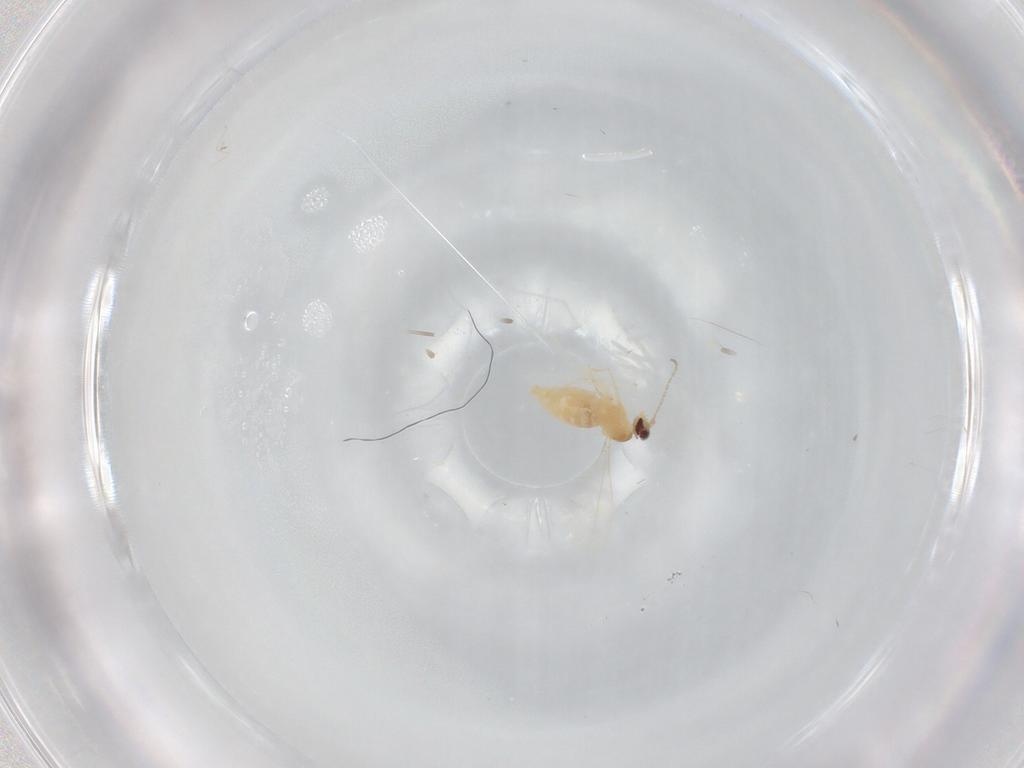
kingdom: Animalia
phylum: Arthropoda
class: Insecta
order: Diptera
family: Cecidomyiidae
